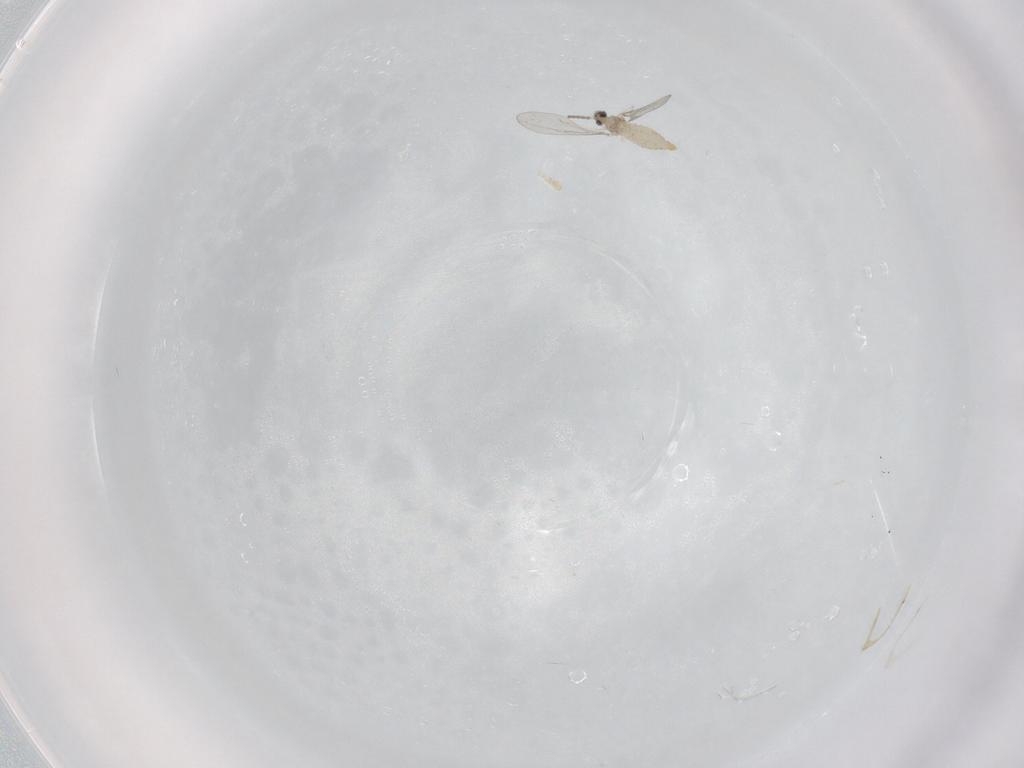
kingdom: Animalia
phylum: Arthropoda
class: Insecta
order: Diptera
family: Cecidomyiidae
